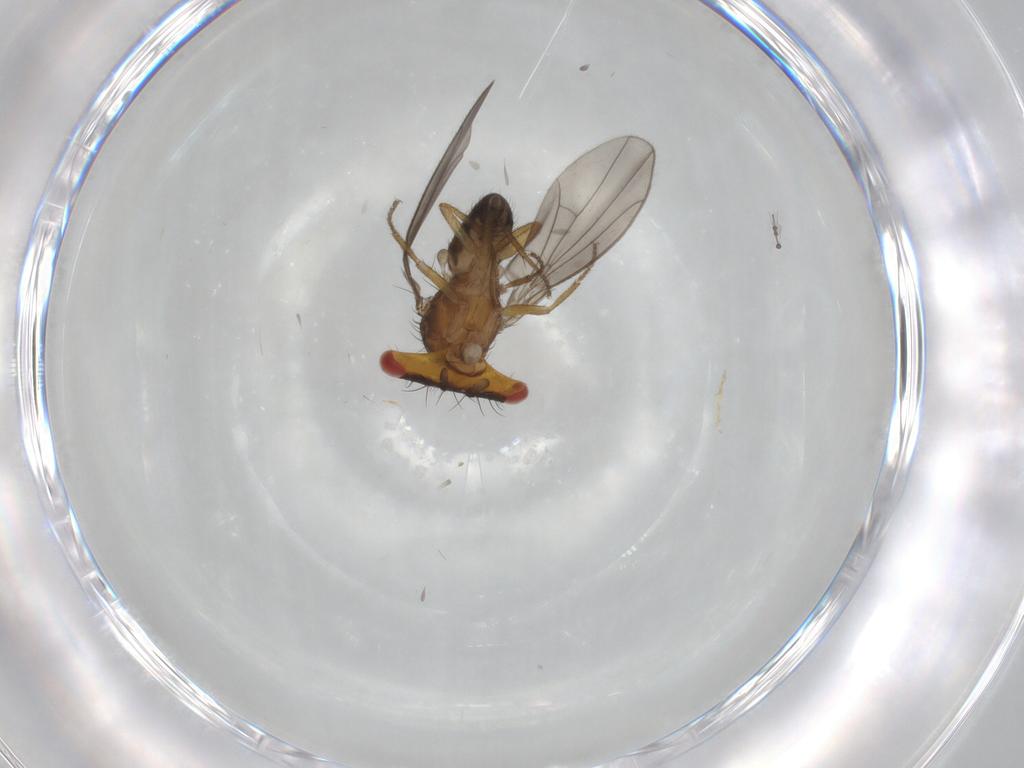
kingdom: Animalia
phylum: Arthropoda
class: Insecta
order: Diptera
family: Drosophilidae
